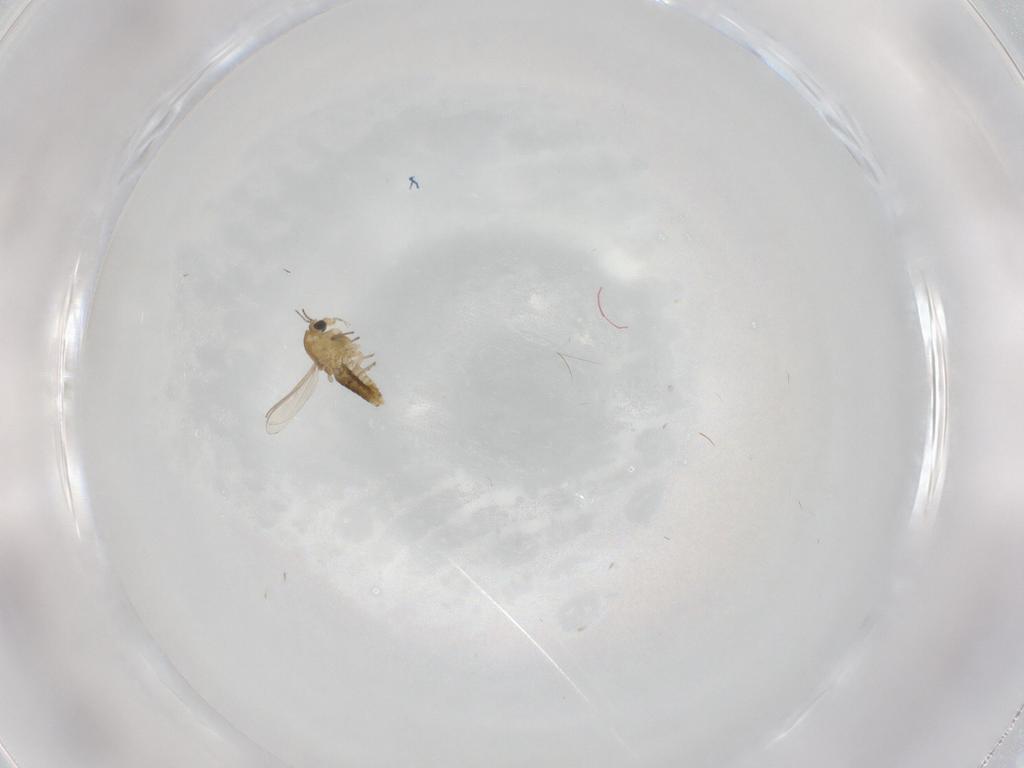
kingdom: Animalia
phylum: Arthropoda
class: Insecta
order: Diptera
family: Chironomidae
